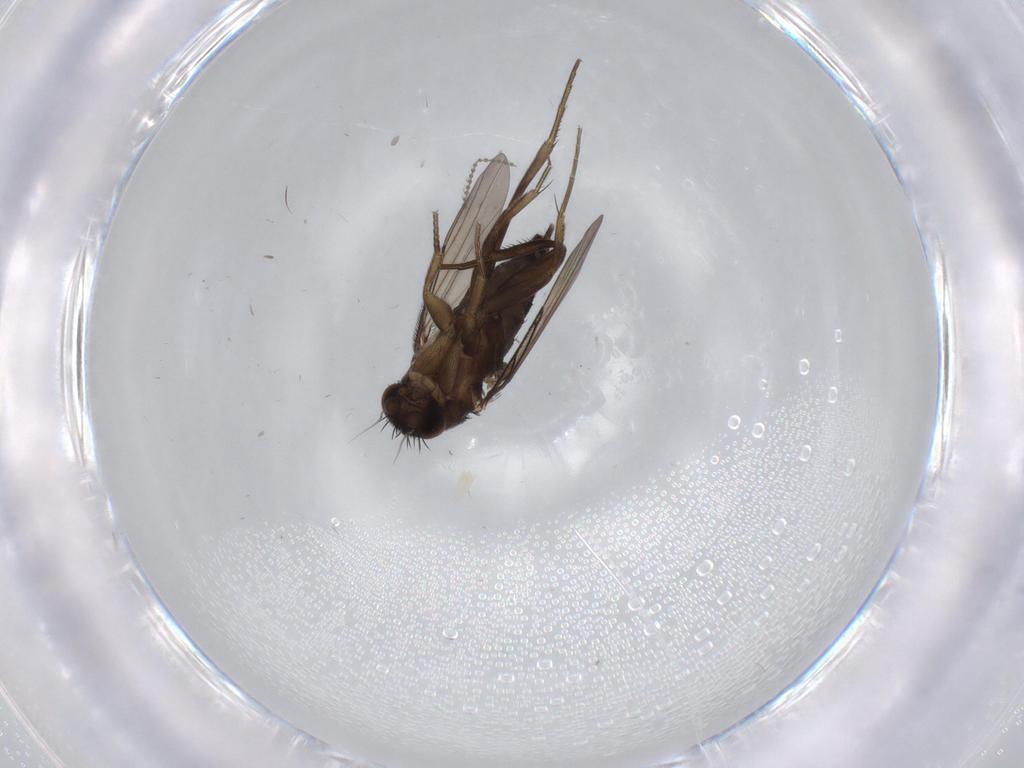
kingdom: Animalia
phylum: Arthropoda
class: Insecta
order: Diptera
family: Phoridae
